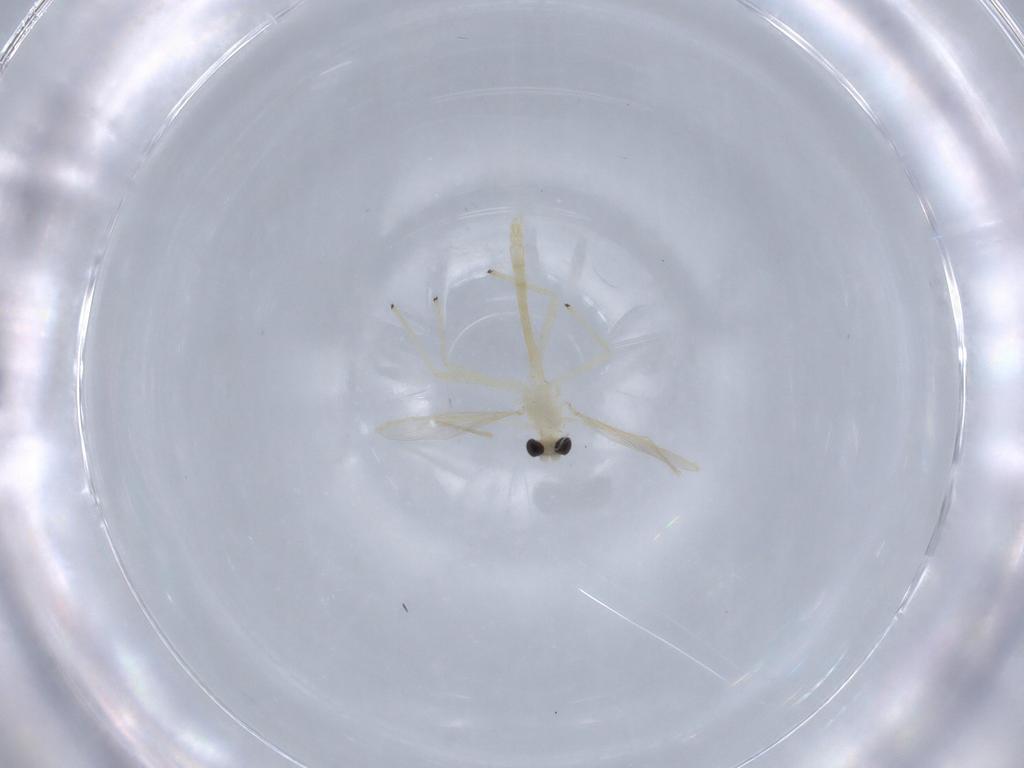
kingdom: Animalia
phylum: Arthropoda
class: Insecta
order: Diptera
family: Chironomidae
